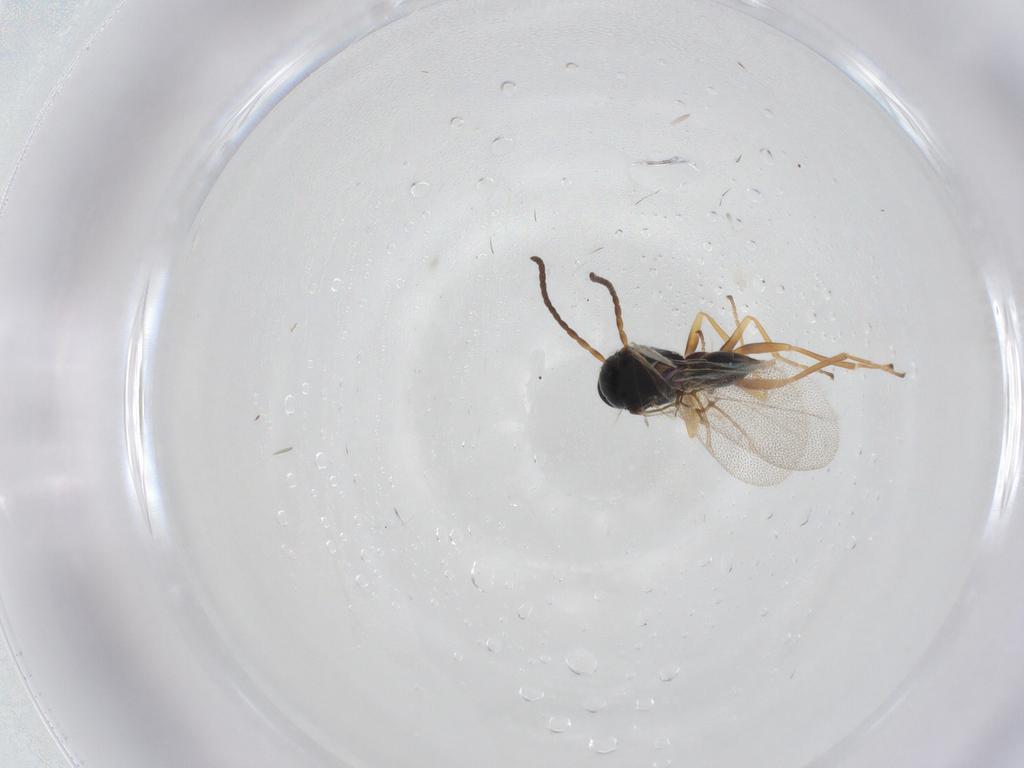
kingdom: Animalia
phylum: Arthropoda
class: Insecta
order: Hymenoptera
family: Cynipidae
